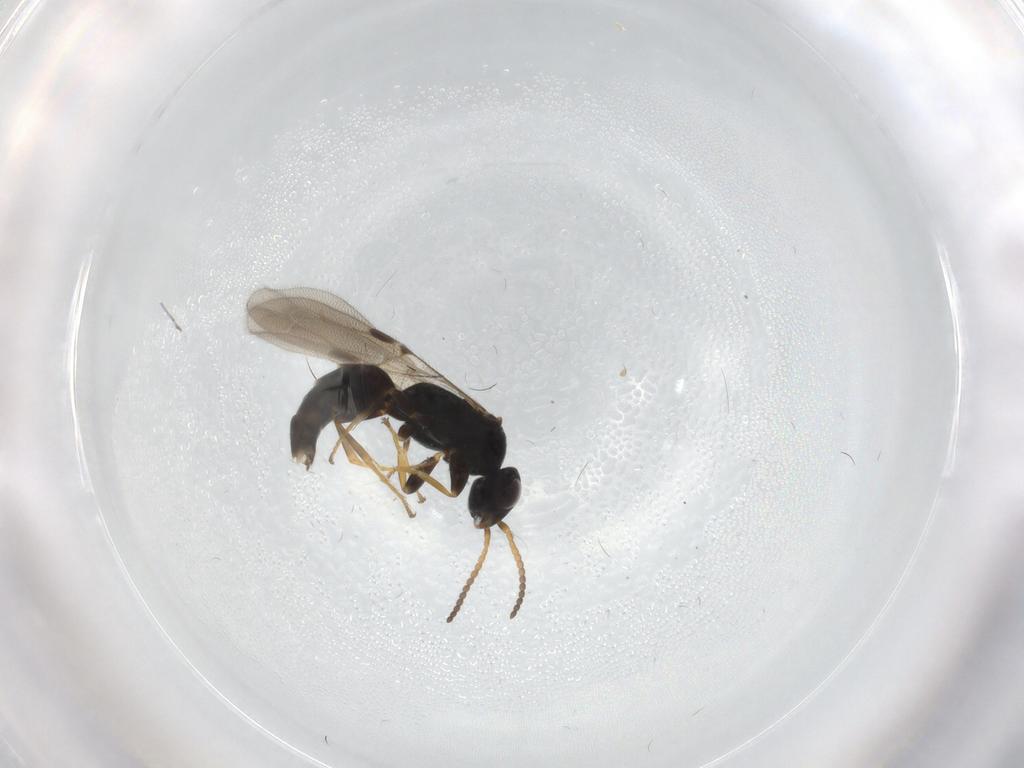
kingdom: Animalia
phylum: Arthropoda
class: Insecta
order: Hymenoptera
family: Bethylidae
